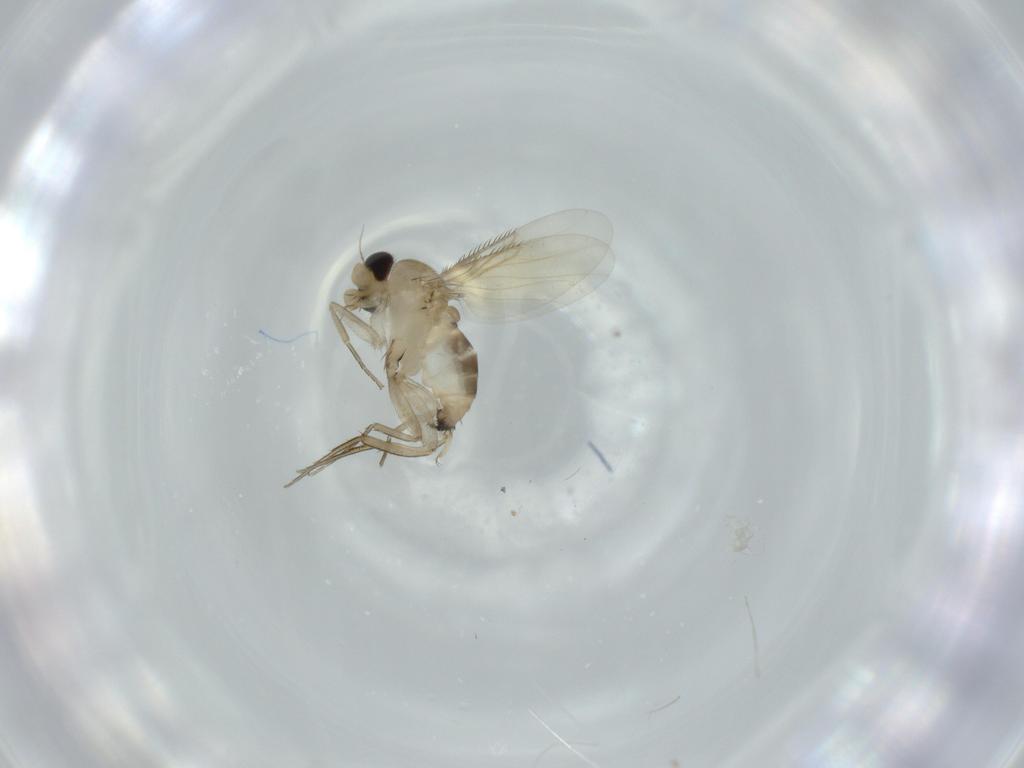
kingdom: Animalia
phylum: Arthropoda
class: Insecta
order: Diptera
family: Phoridae
